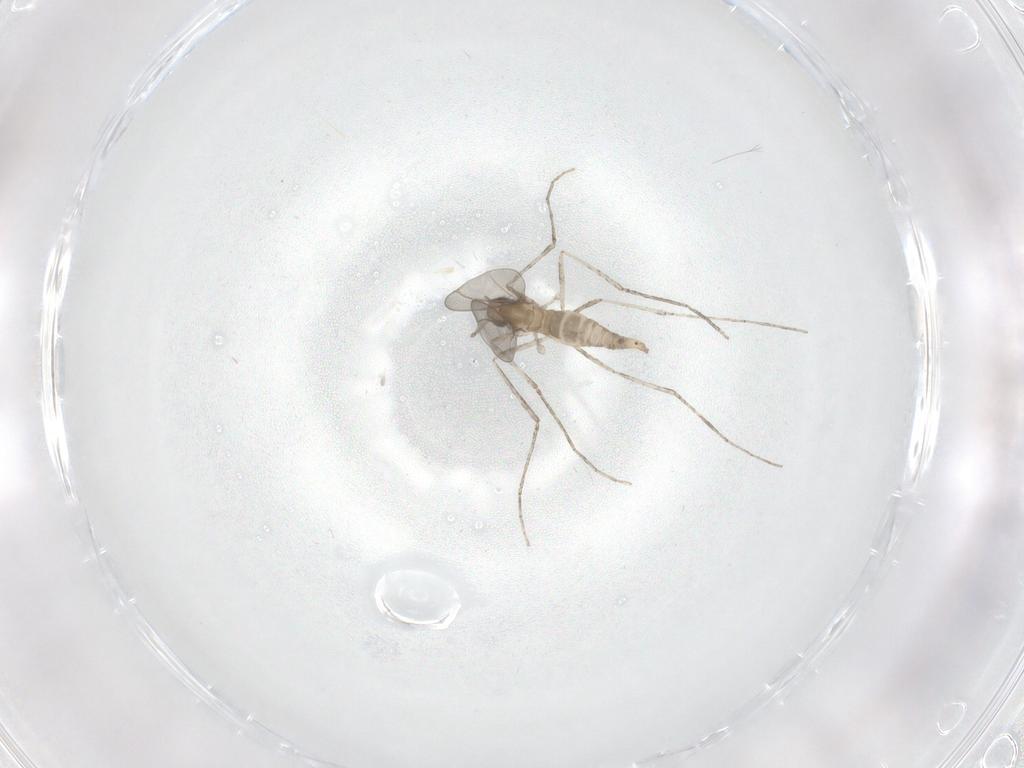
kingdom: Animalia
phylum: Arthropoda
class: Insecta
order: Diptera
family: Cecidomyiidae
